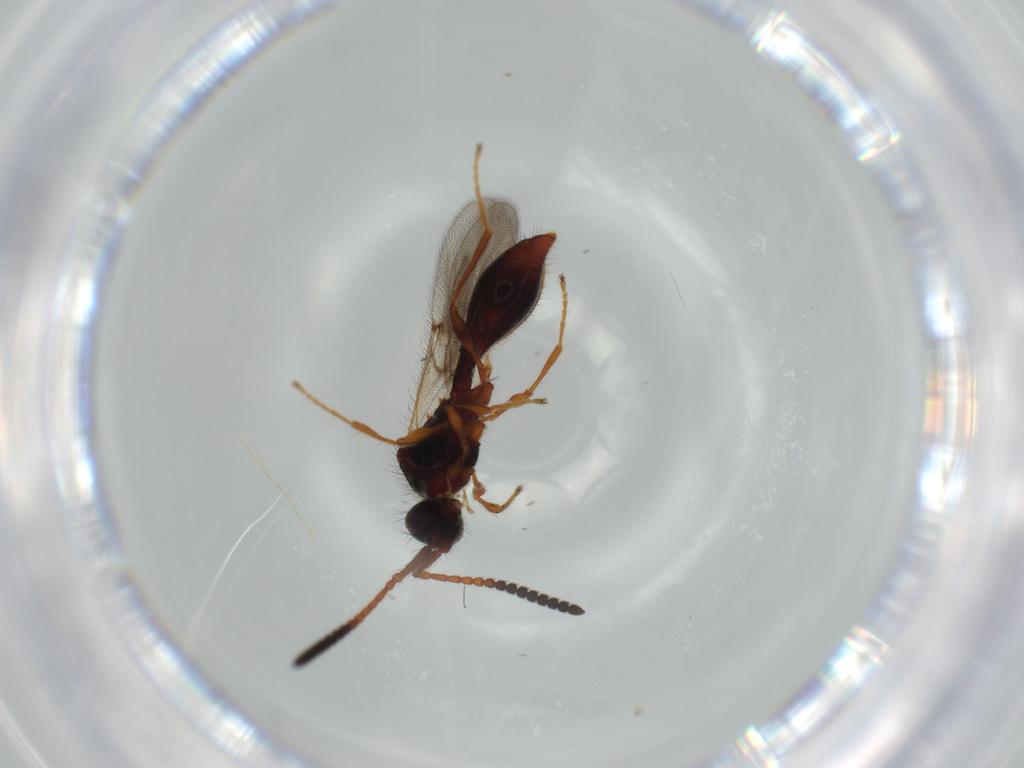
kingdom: Animalia
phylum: Arthropoda
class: Insecta
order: Hymenoptera
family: Diapriidae
